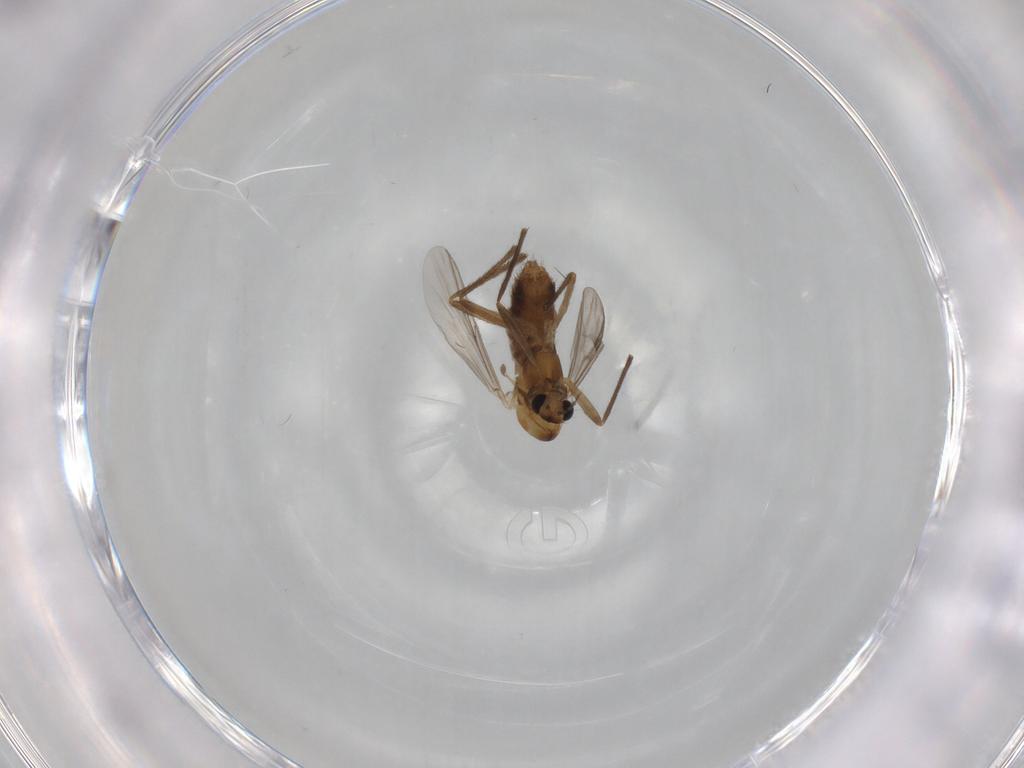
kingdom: Animalia
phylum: Arthropoda
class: Insecta
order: Diptera
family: Chironomidae
